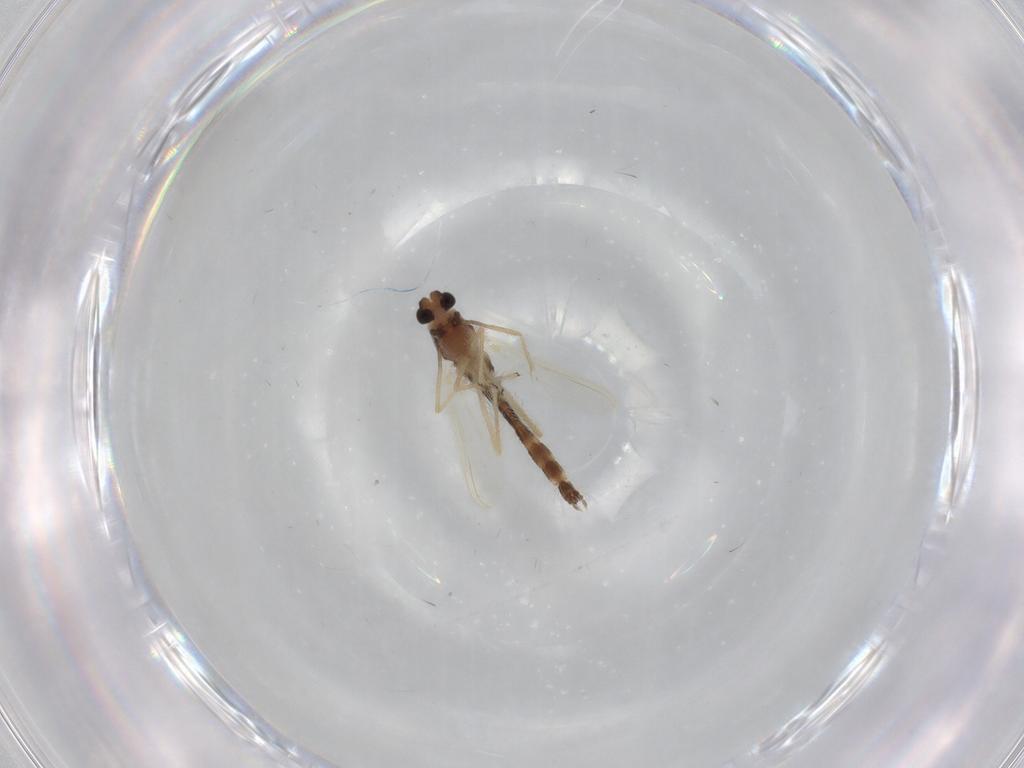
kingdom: Animalia
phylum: Arthropoda
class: Insecta
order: Diptera
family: Chironomidae
